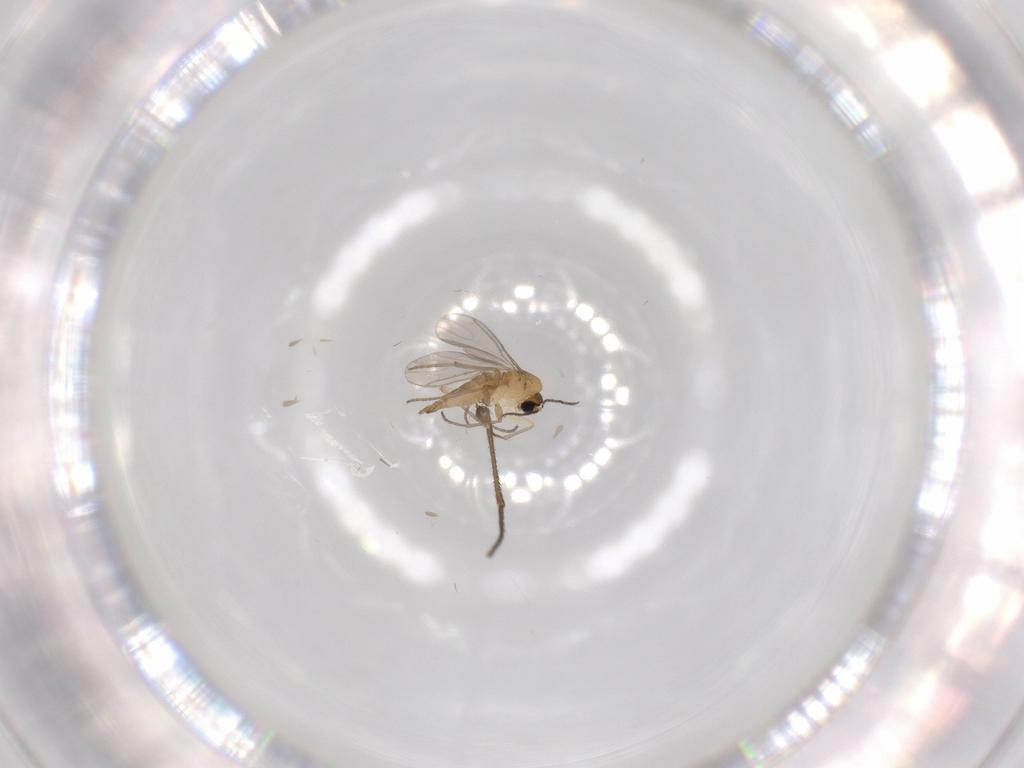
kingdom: Animalia
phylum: Arthropoda
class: Insecta
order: Diptera
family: Sciaridae
